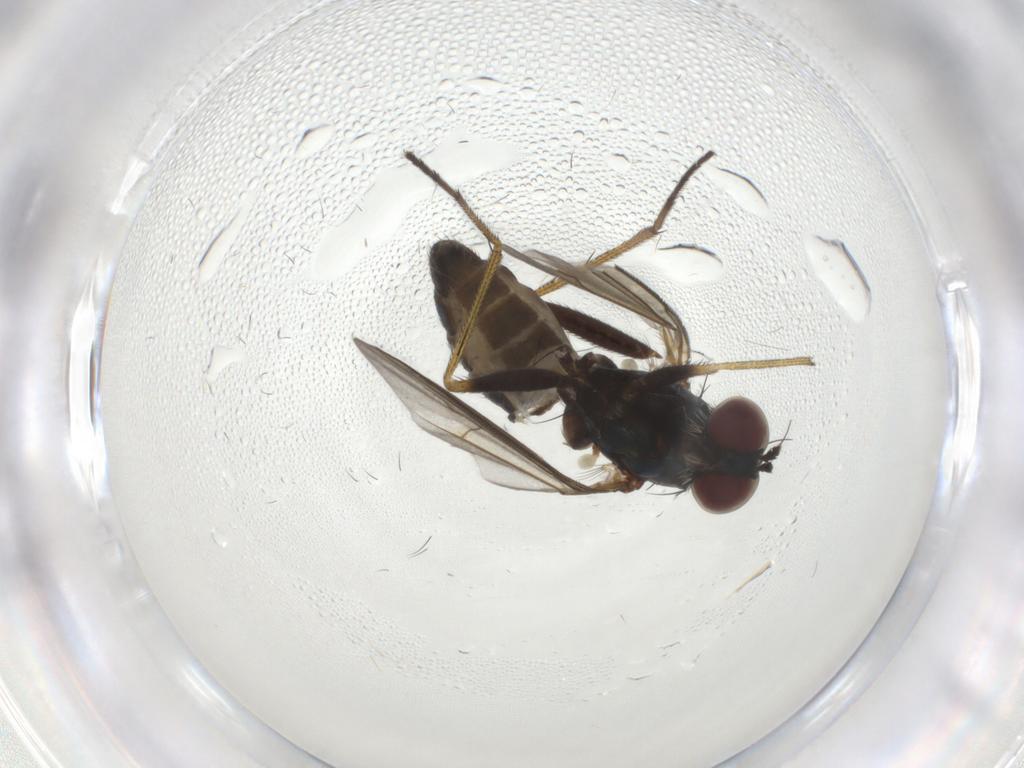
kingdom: Animalia
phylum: Arthropoda
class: Insecta
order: Diptera
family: Dolichopodidae
